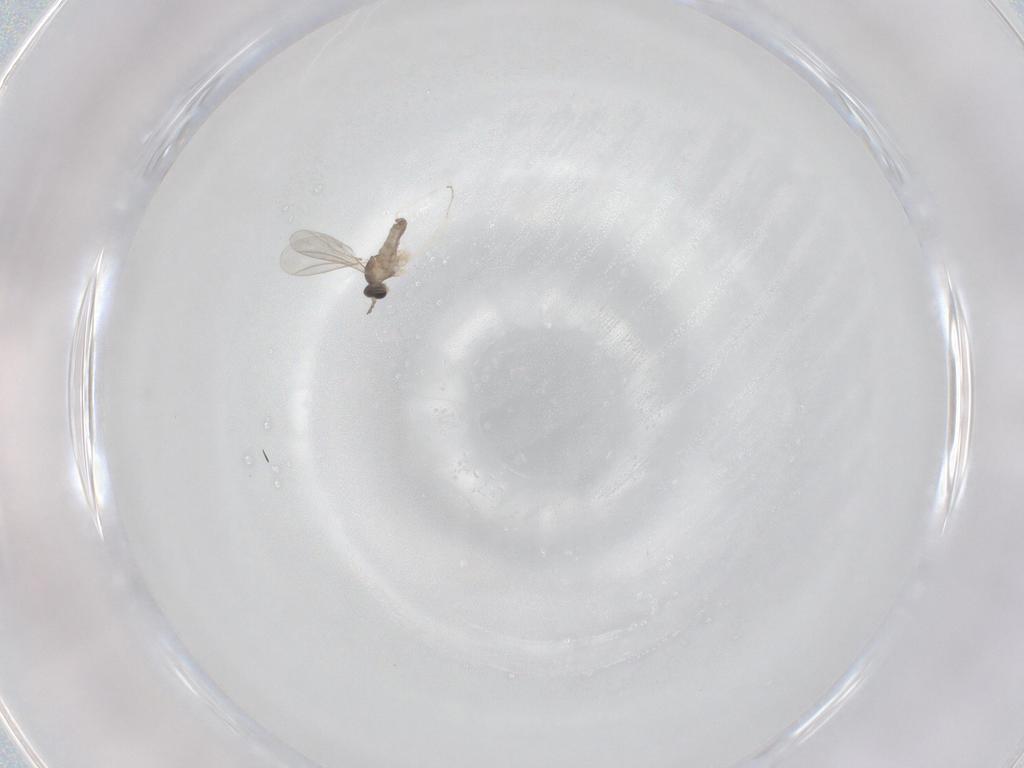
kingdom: Animalia
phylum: Arthropoda
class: Insecta
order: Diptera
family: Cecidomyiidae
